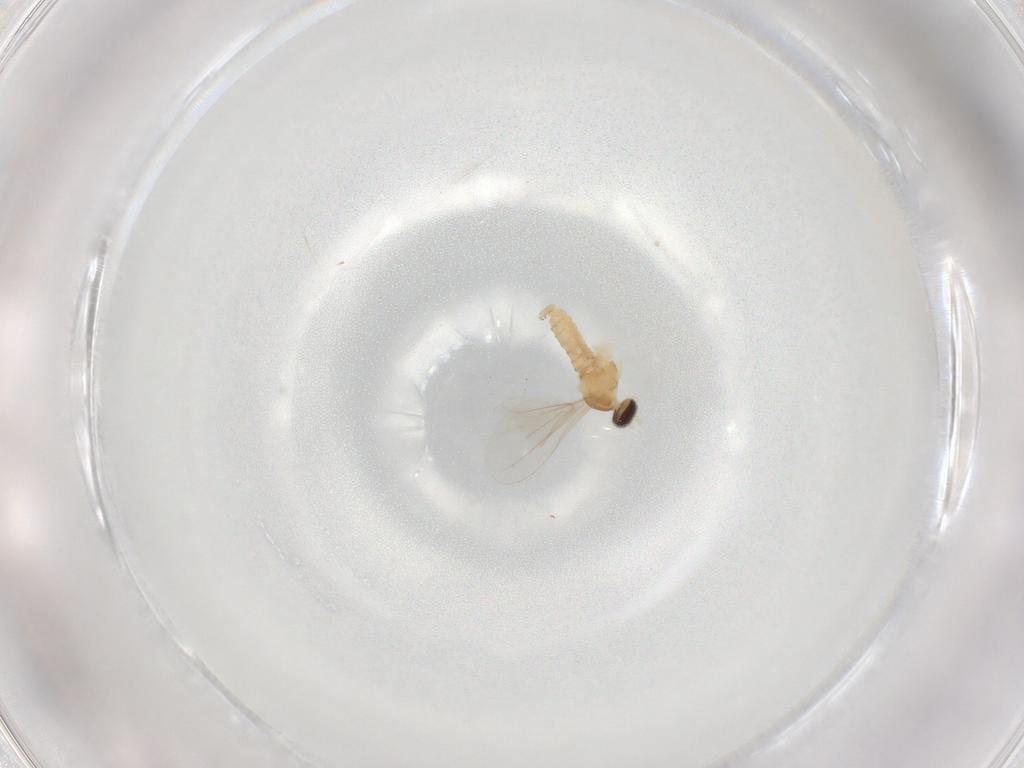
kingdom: Animalia
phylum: Arthropoda
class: Insecta
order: Diptera
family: Cecidomyiidae
